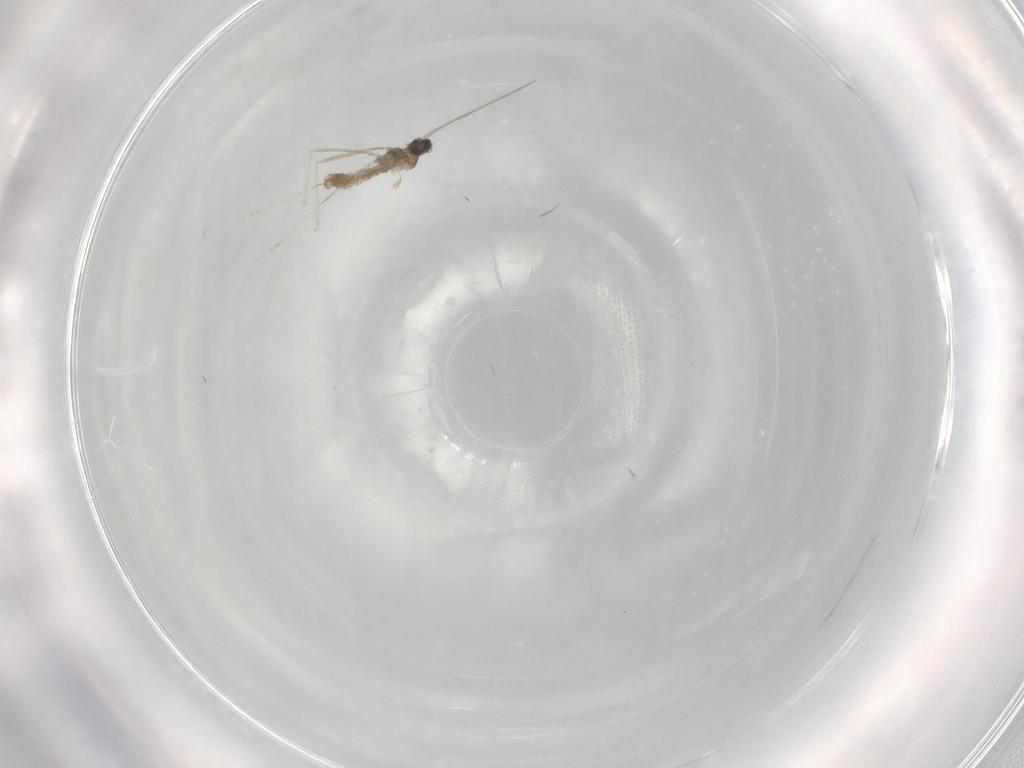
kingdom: Animalia
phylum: Arthropoda
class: Insecta
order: Diptera
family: Cecidomyiidae
